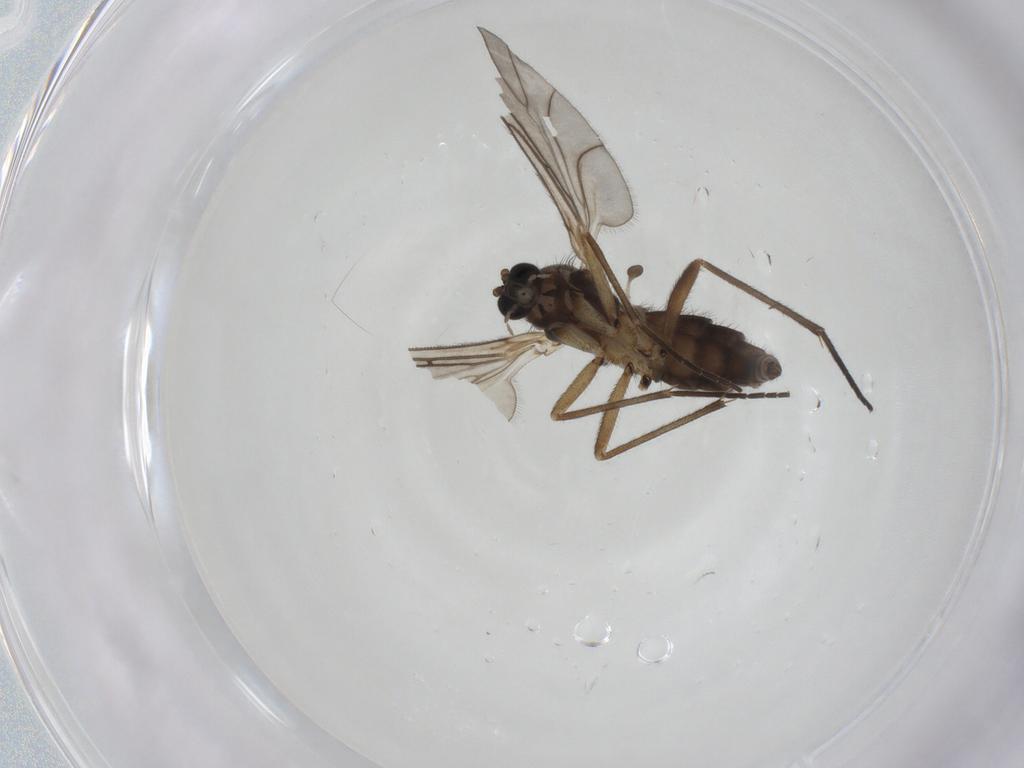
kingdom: Animalia
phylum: Arthropoda
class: Insecta
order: Diptera
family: Sciaridae
